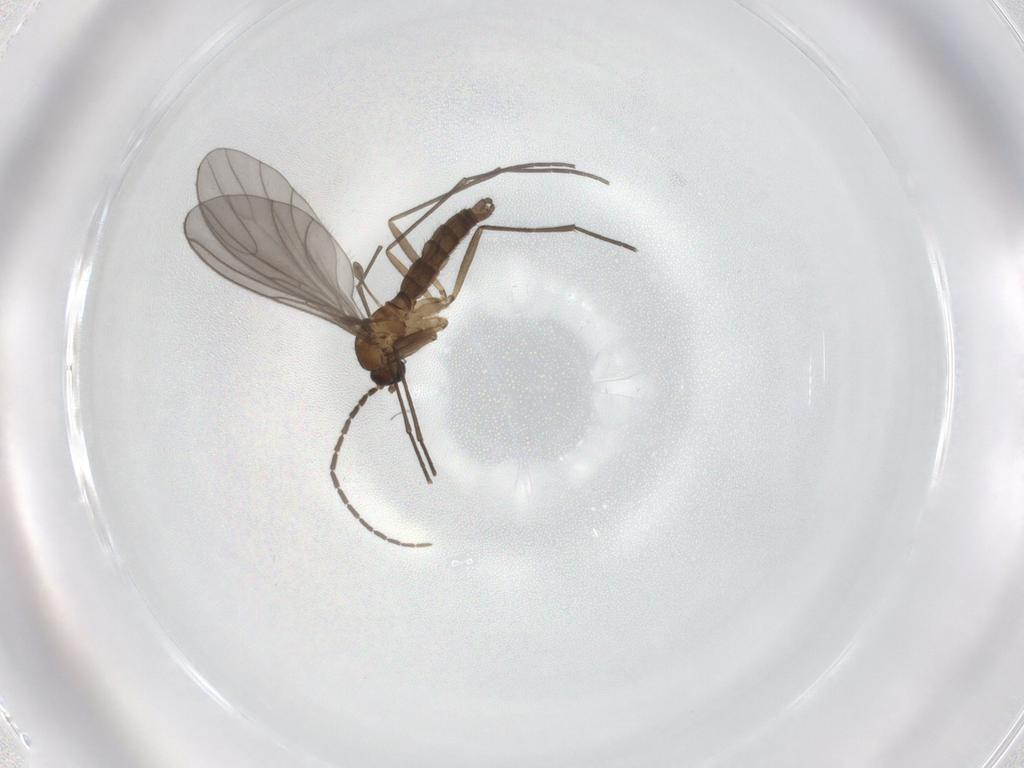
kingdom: Animalia
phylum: Arthropoda
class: Insecta
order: Diptera
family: Sciaridae
